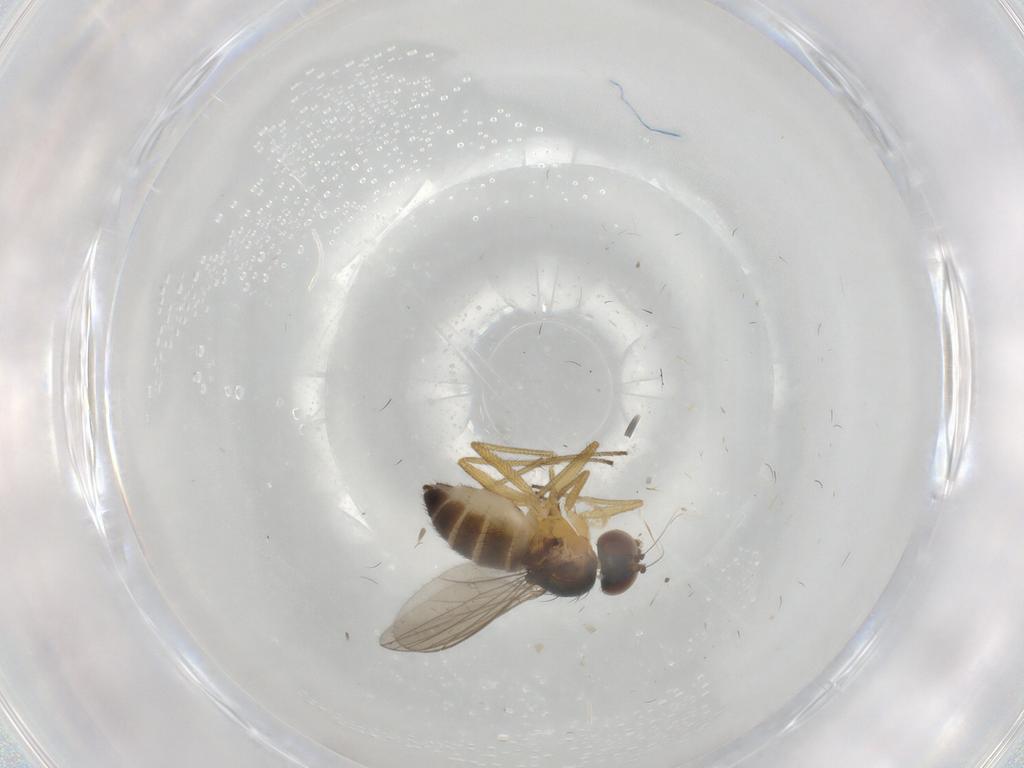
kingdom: Animalia
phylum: Arthropoda
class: Insecta
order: Diptera
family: Dolichopodidae
